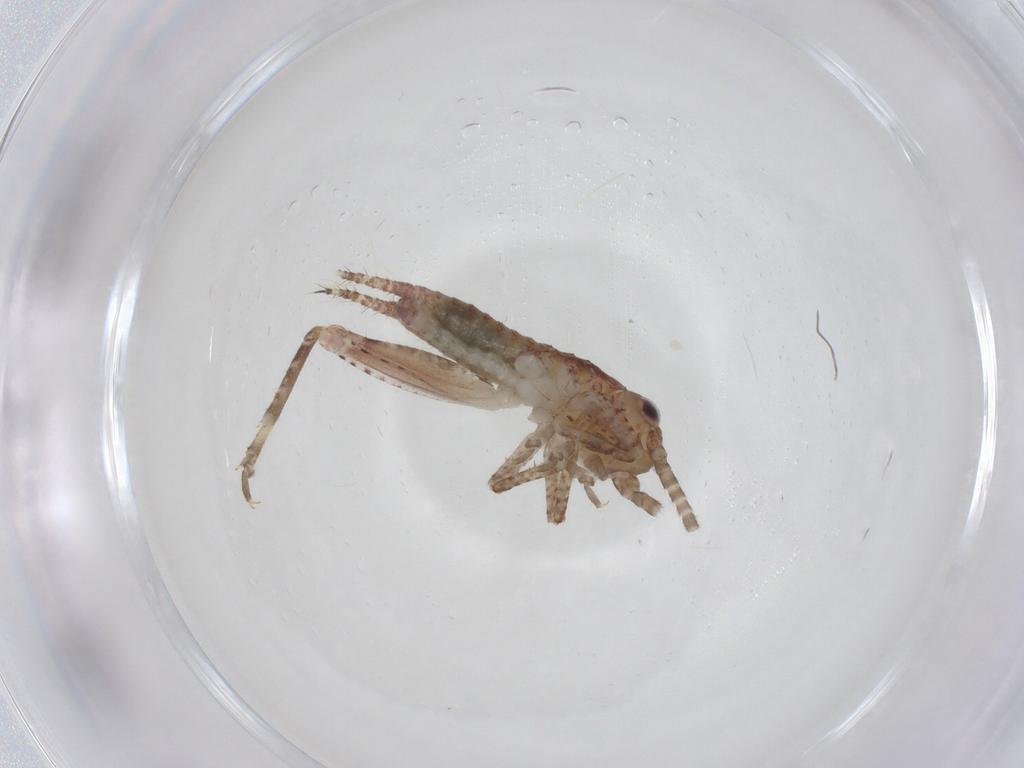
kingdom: Animalia
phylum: Arthropoda
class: Insecta
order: Orthoptera
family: Gryllidae
